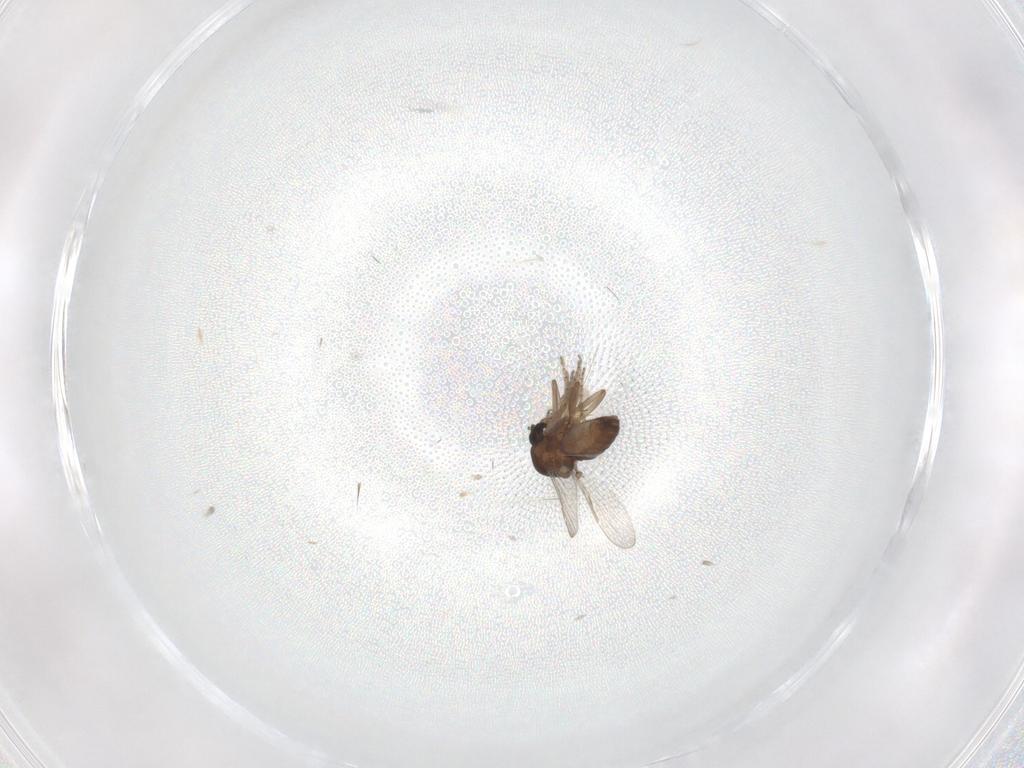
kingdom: Animalia
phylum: Arthropoda
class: Insecta
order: Diptera
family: Ceratopogonidae
